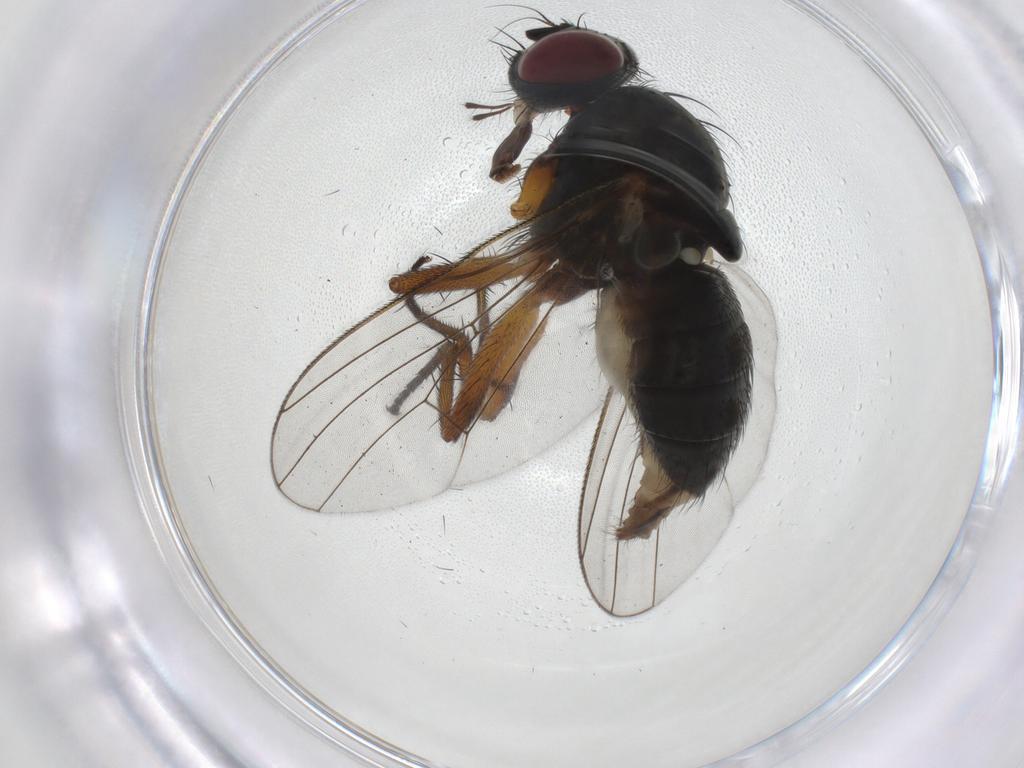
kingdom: Animalia
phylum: Arthropoda
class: Insecta
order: Diptera
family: Muscidae
